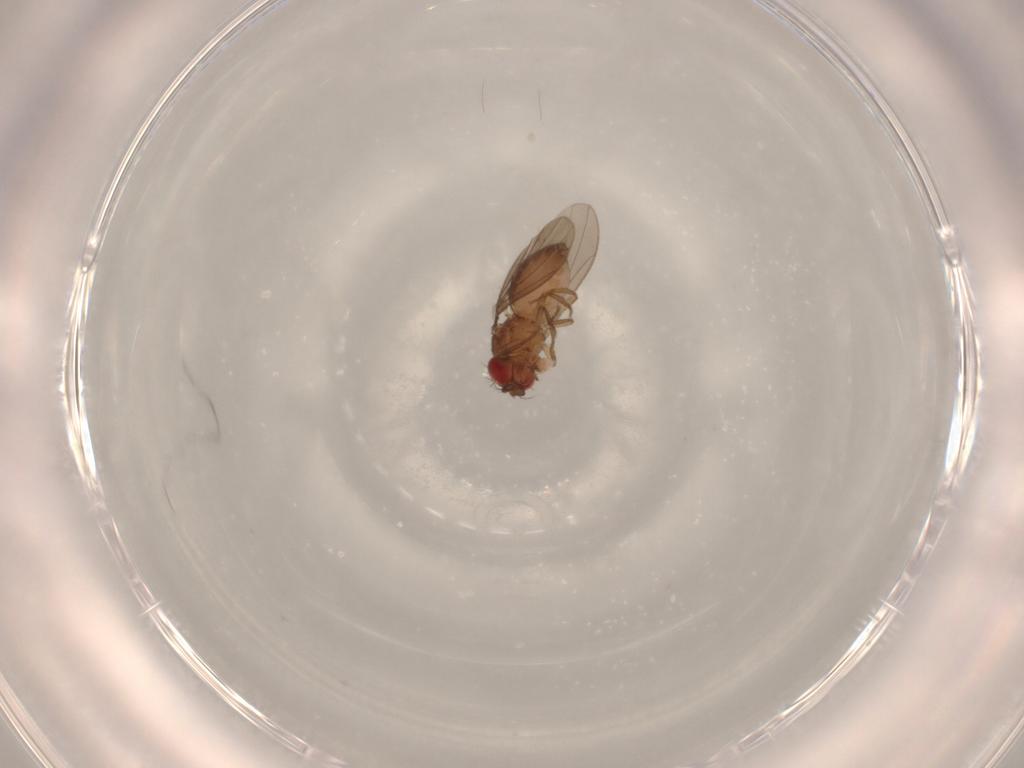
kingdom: Animalia
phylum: Arthropoda
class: Insecta
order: Diptera
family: Drosophilidae
